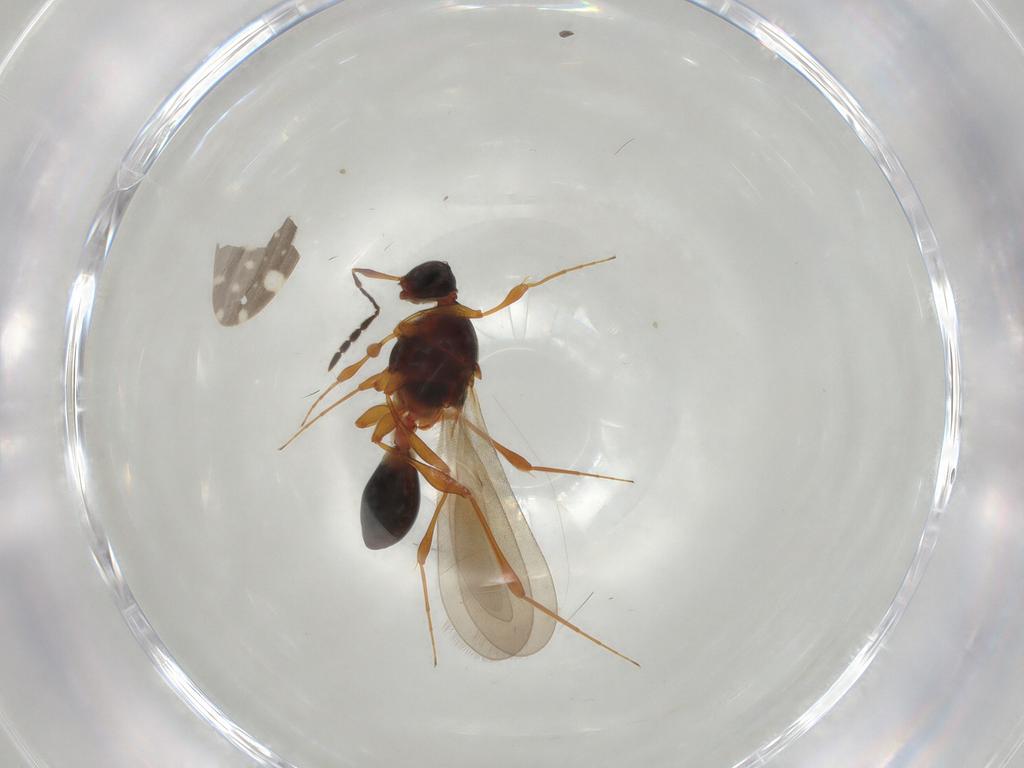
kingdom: Animalia
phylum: Arthropoda
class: Insecta
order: Hymenoptera
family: Platygastridae
